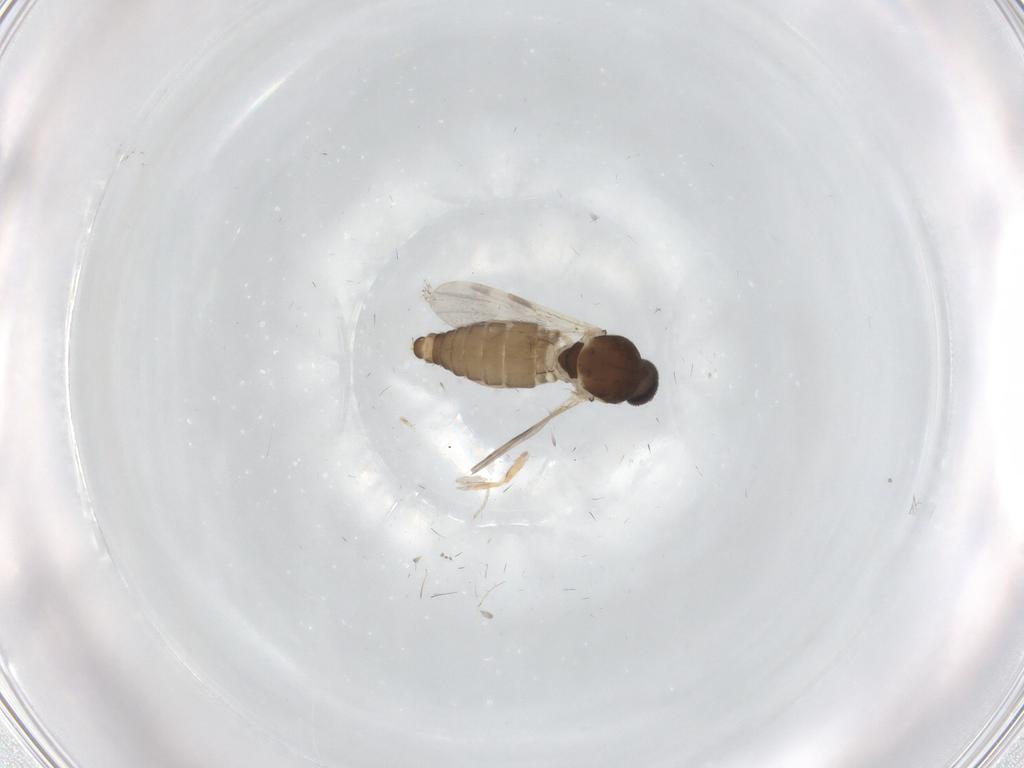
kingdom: Animalia
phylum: Arthropoda
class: Insecta
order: Diptera
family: Ceratopogonidae
